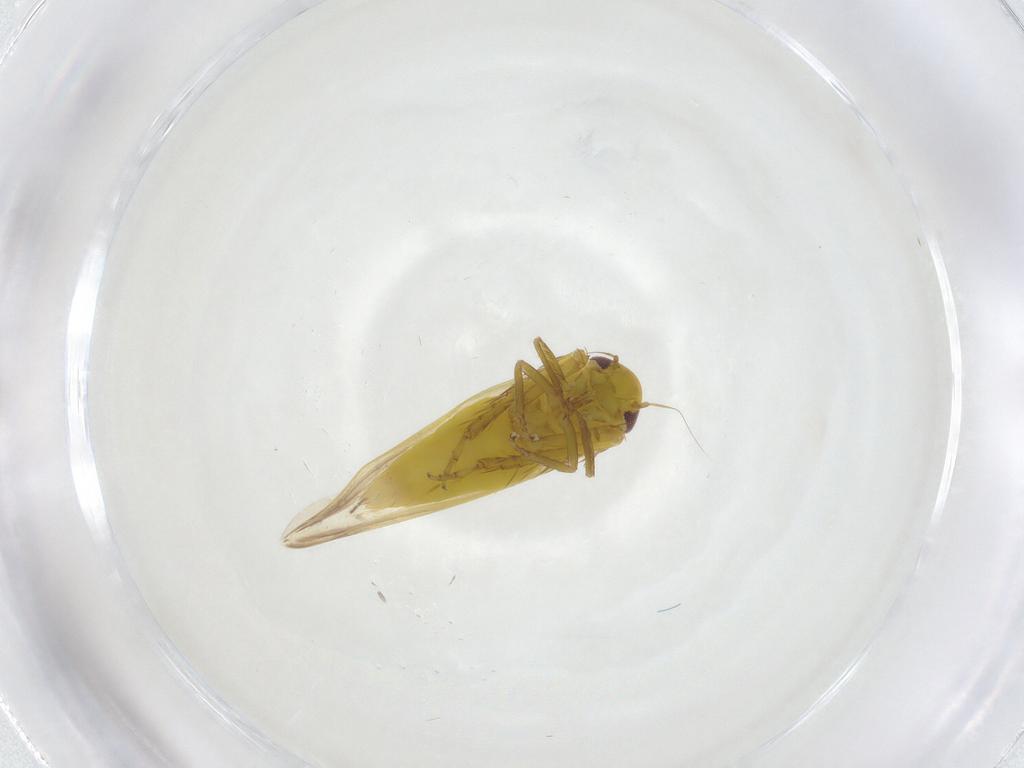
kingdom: Animalia
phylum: Arthropoda
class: Insecta
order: Hemiptera
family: Cicadellidae
